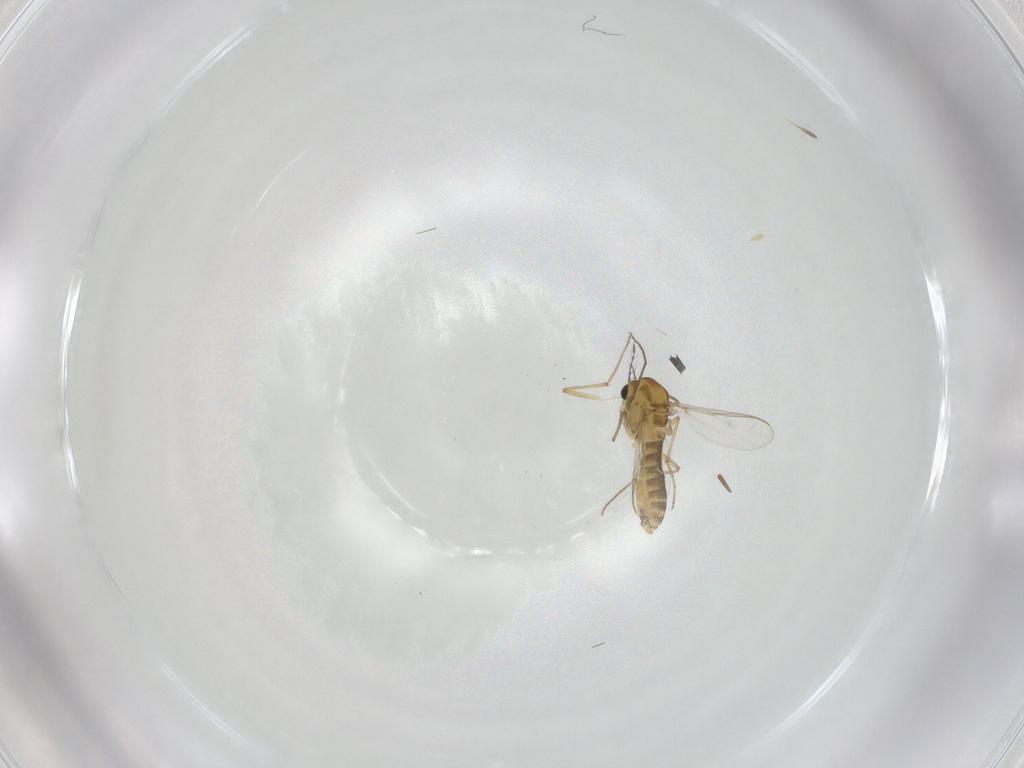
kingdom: Animalia
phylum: Arthropoda
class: Insecta
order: Diptera
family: Chironomidae
